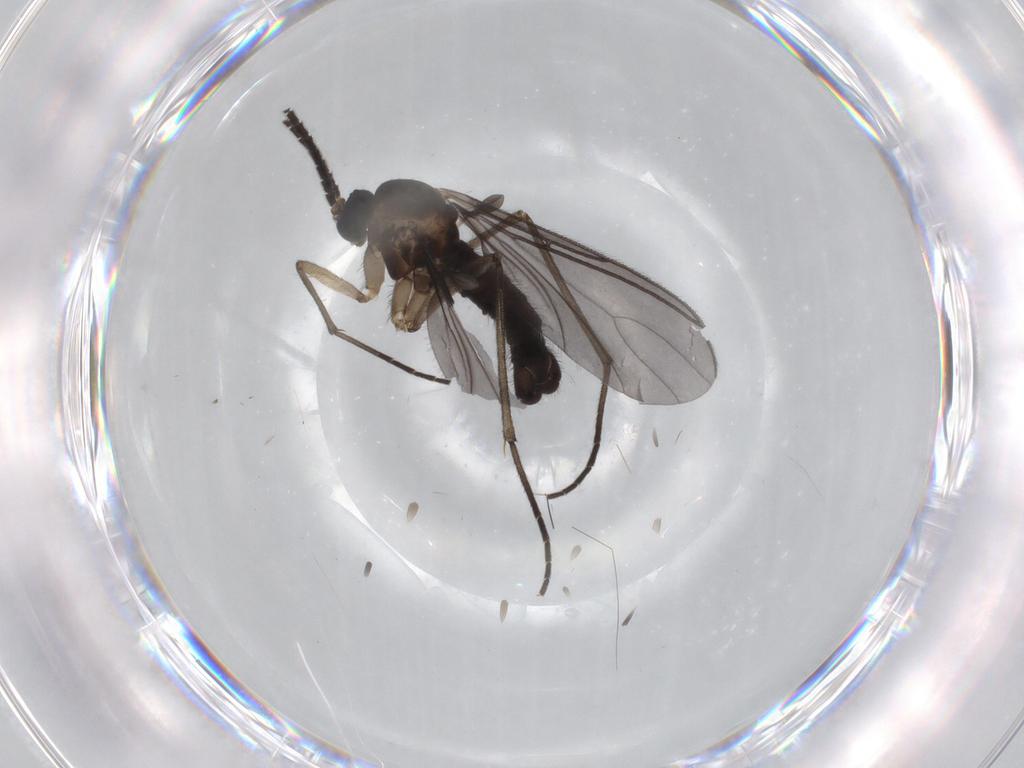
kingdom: Animalia
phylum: Arthropoda
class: Insecta
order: Diptera
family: Sciaridae
